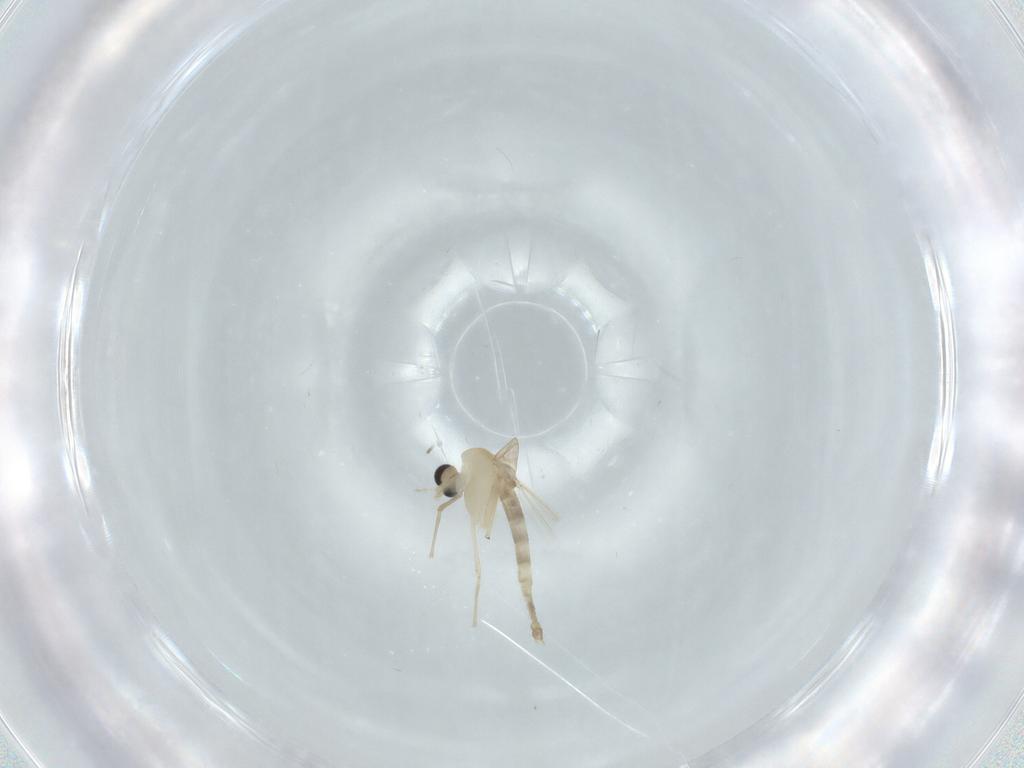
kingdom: Animalia
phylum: Arthropoda
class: Insecta
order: Diptera
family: Chironomidae
